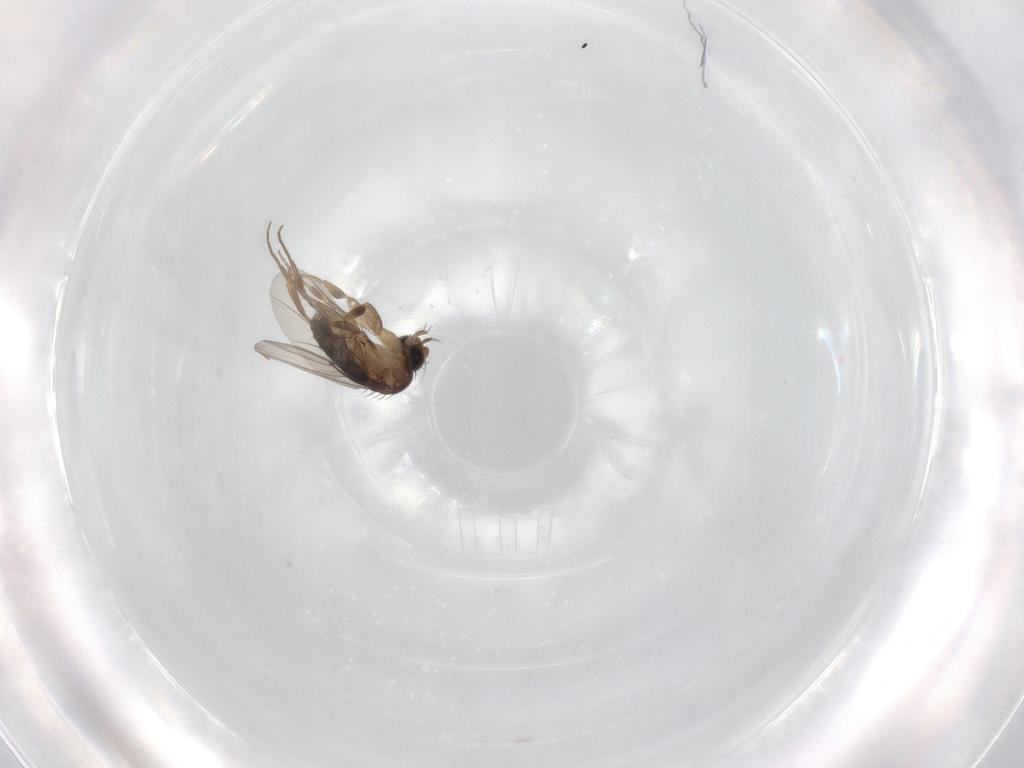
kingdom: Animalia
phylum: Arthropoda
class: Insecta
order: Diptera
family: Phoridae
